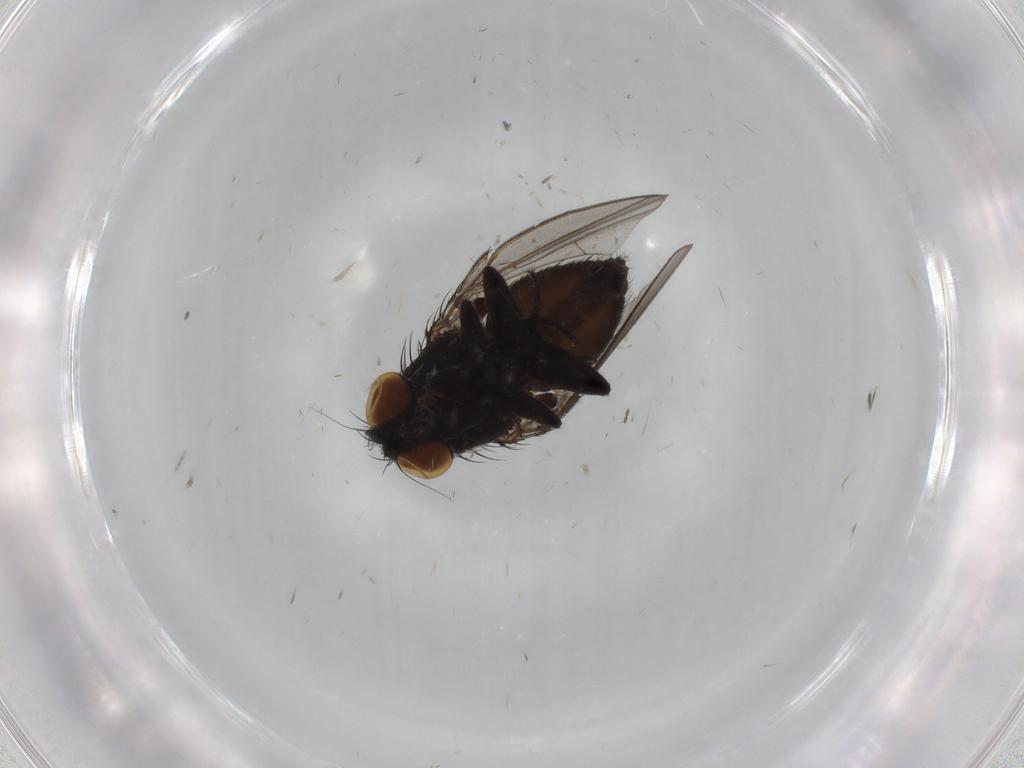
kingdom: Animalia
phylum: Arthropoda
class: Insecta
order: Diptera
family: Milichiidae
